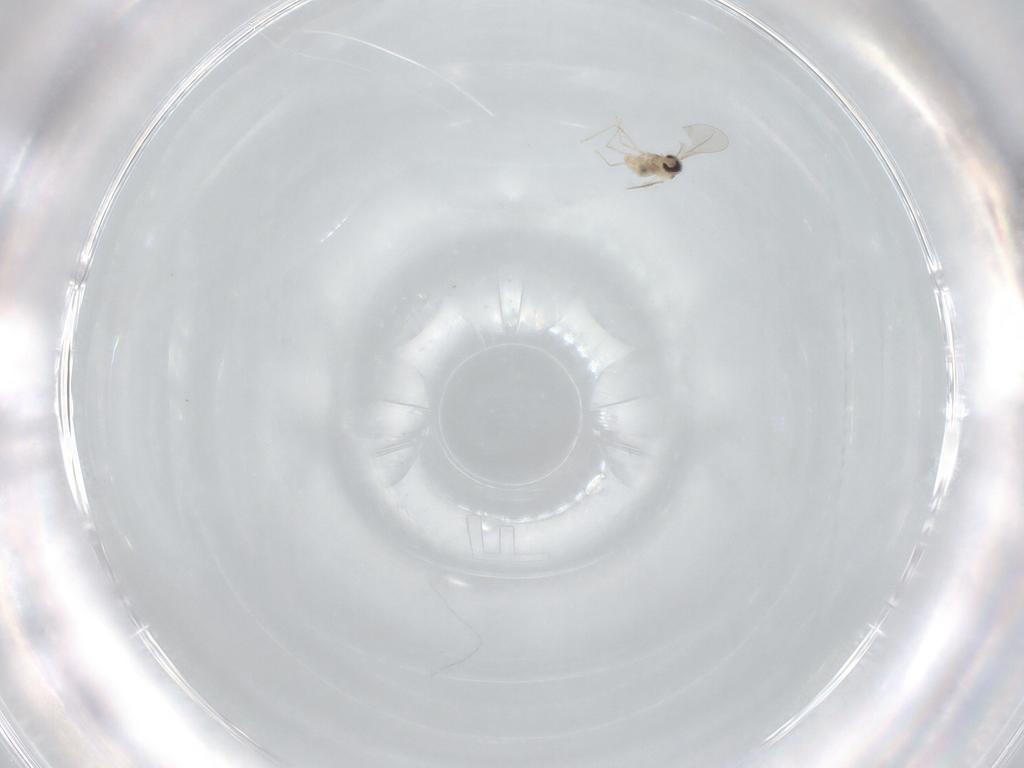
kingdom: Animalia
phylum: Arthropoda
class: Insecta
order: Diptera
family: Cecidomyiidae
